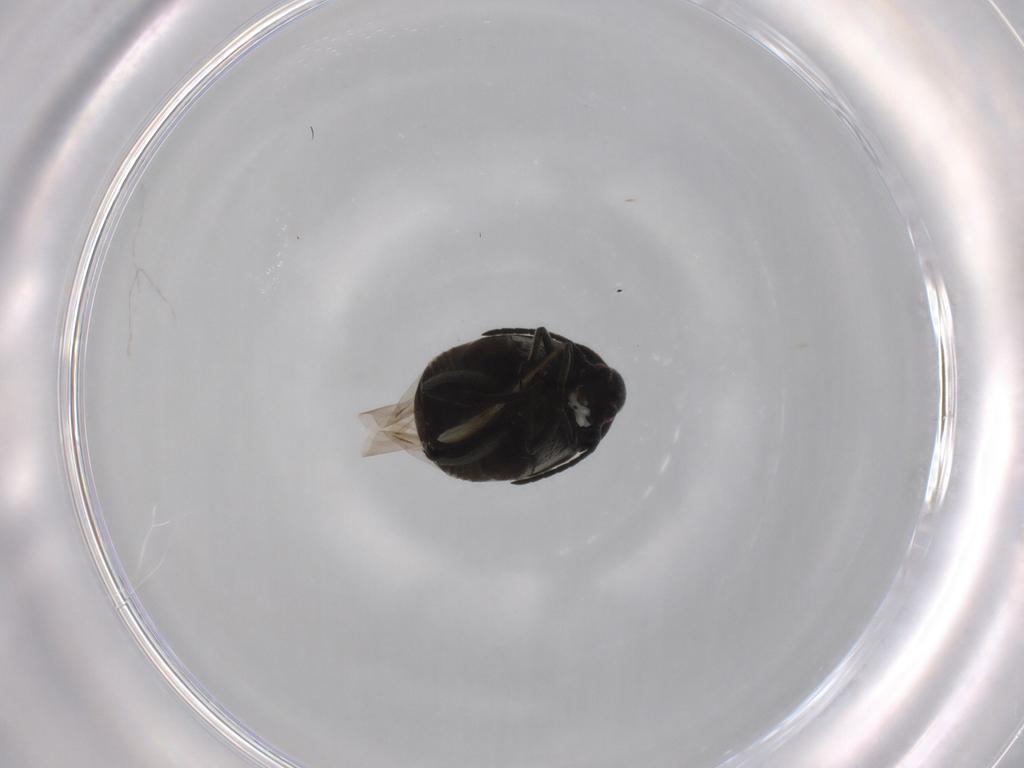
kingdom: Animalia
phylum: Arthropoda
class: Insecta
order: Coleoptera
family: Chrysomelidae
